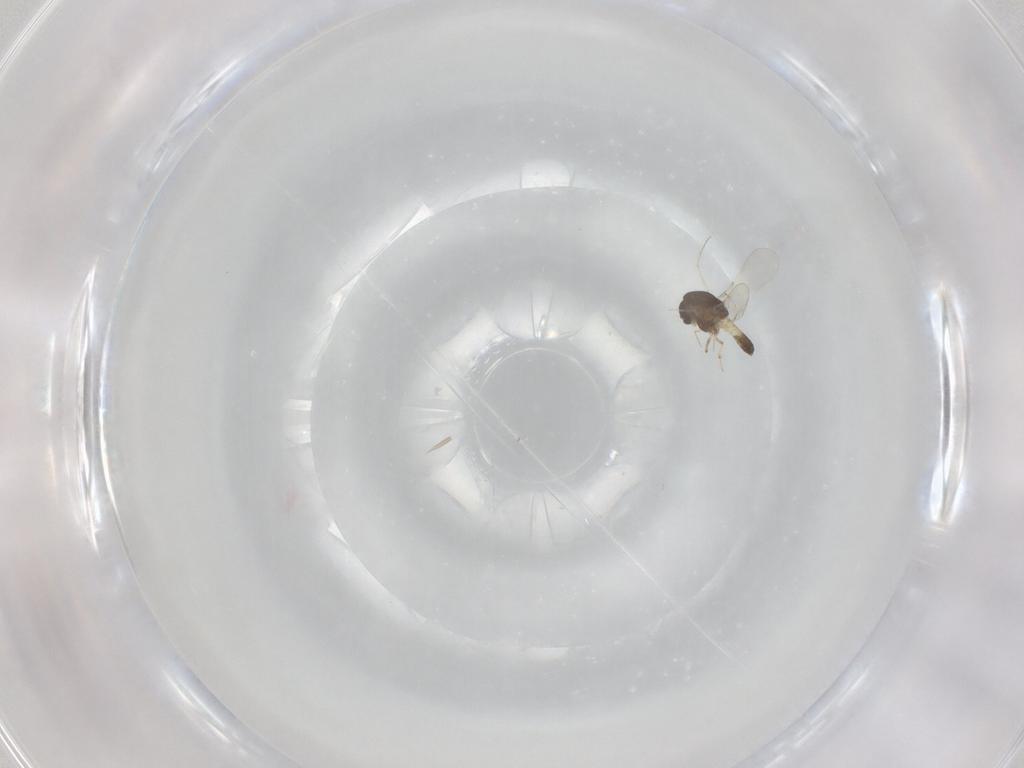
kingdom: Animalia
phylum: Arthropoda
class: Insecta
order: Diptera
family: Chironomidae
